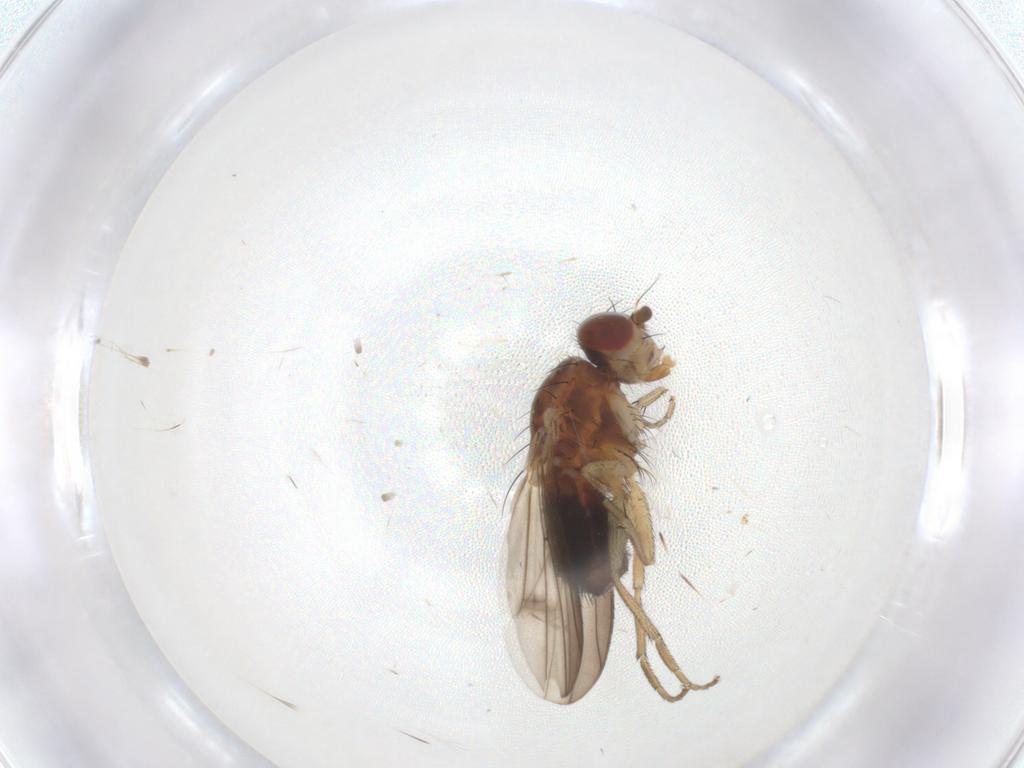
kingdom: Animalia
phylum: Arthropoda
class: Insecta
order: Diptera
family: Heleomyzidae
